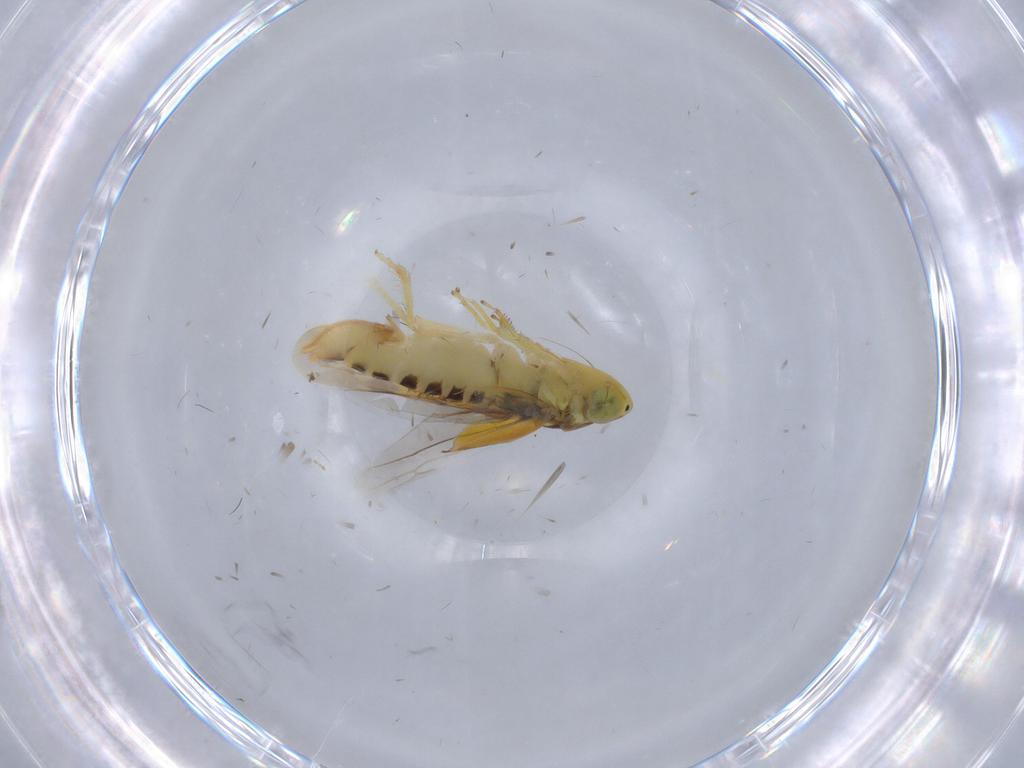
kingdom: Animalia
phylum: Arthropoda
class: Insecta
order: Hemiptera
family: Cicadellidae
